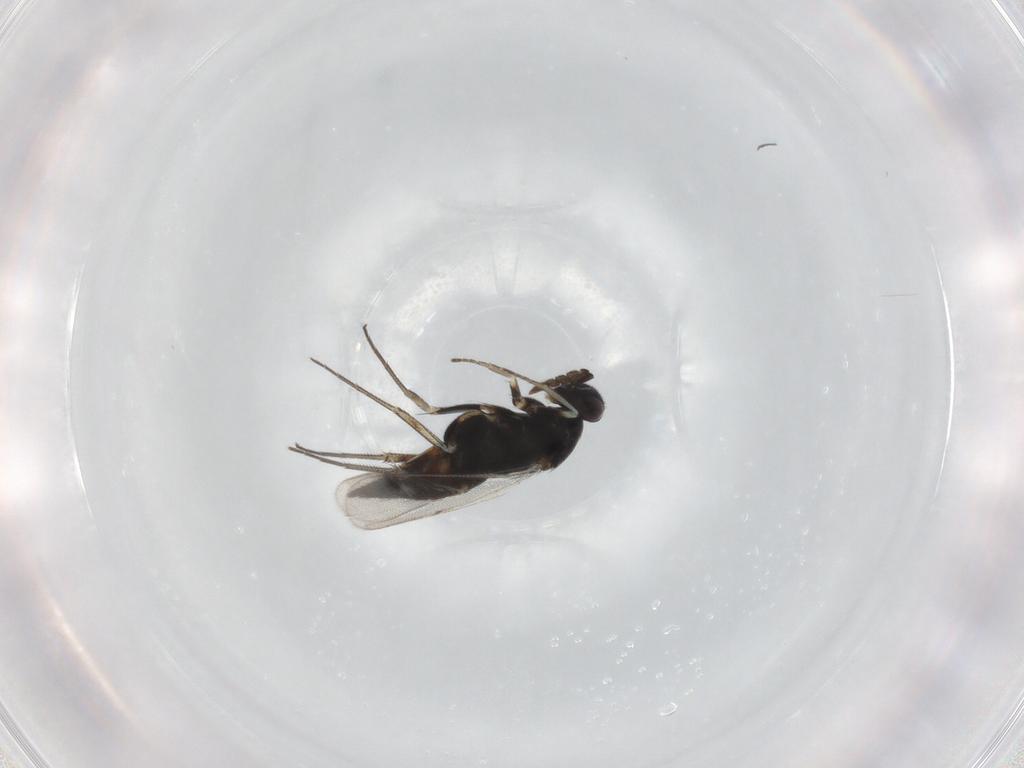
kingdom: Animalia
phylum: Arthropoda
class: Insecta
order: Hymenoptera
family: Eulophidae
